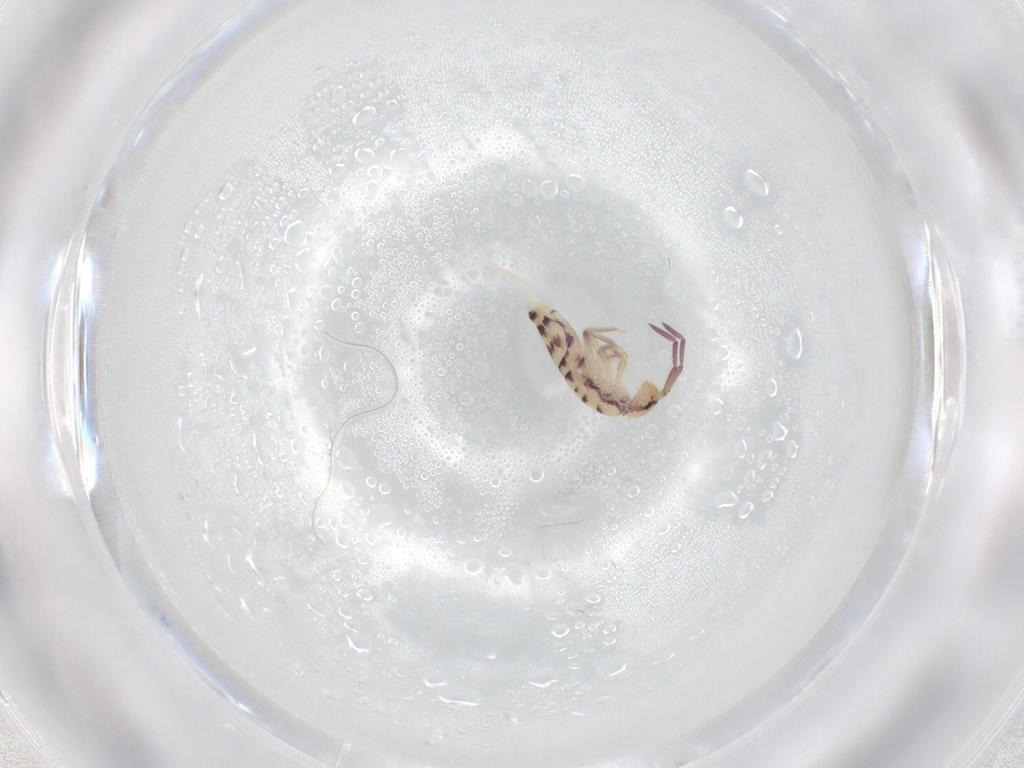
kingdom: Animalia
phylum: Arthropoda
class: Collembola
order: Entomobryomorpha
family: Entomobryidae
